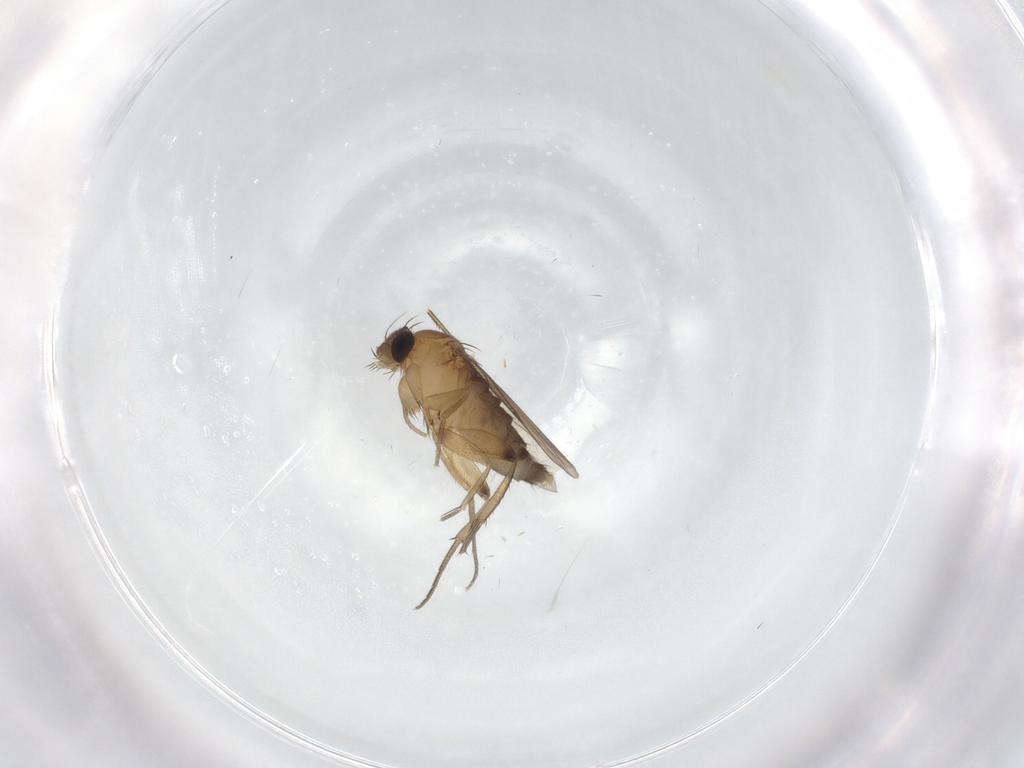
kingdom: Animalia
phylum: Arthropoda
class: Insecta
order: Diptera
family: Phoridae
